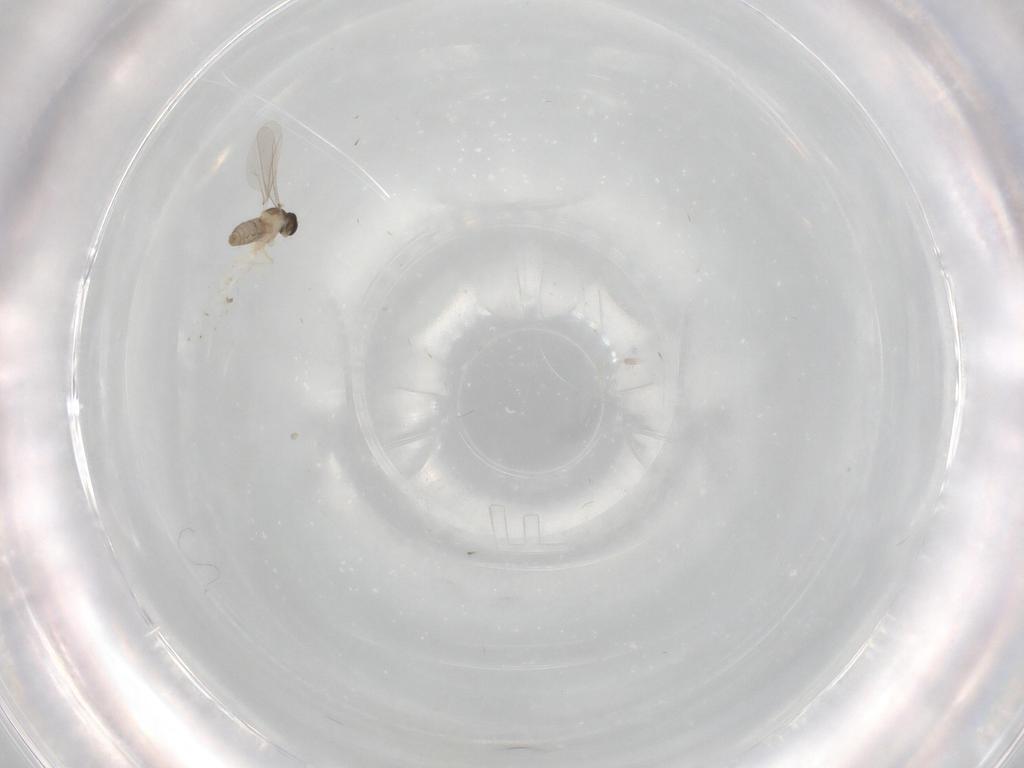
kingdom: Animalia
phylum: Arthropoda
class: Insecta
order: Diptera
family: Cecidomyiidae
